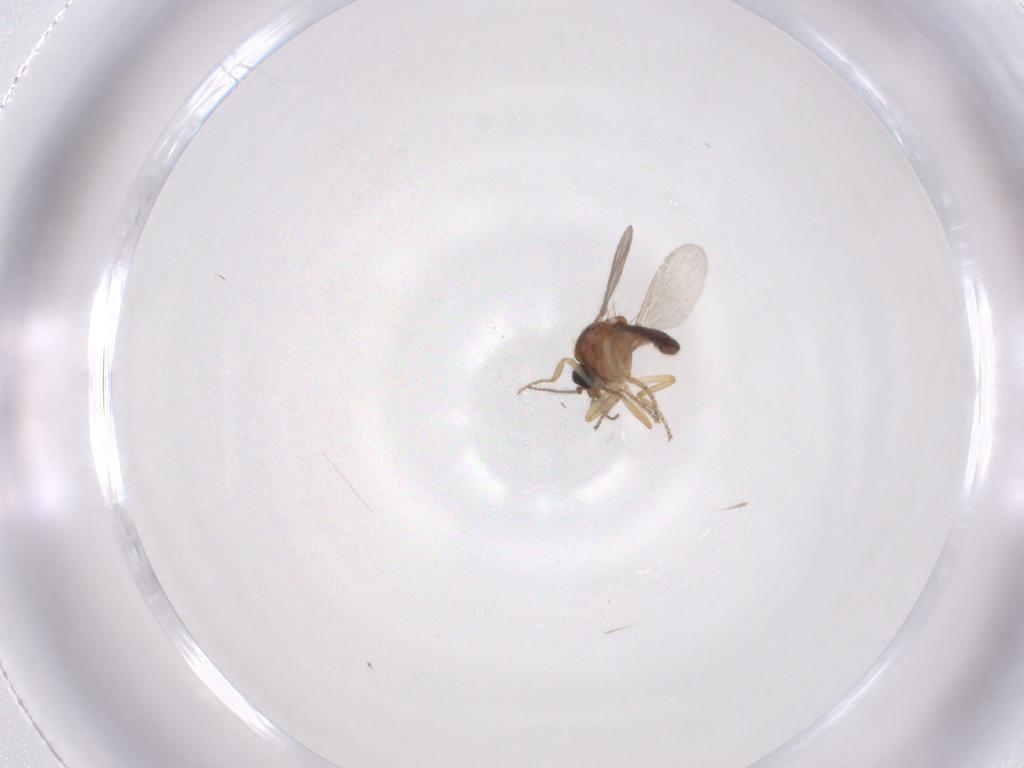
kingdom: Animalia
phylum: Arthropoda
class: Insecta
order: Diptera
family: Ceratopogonidae
